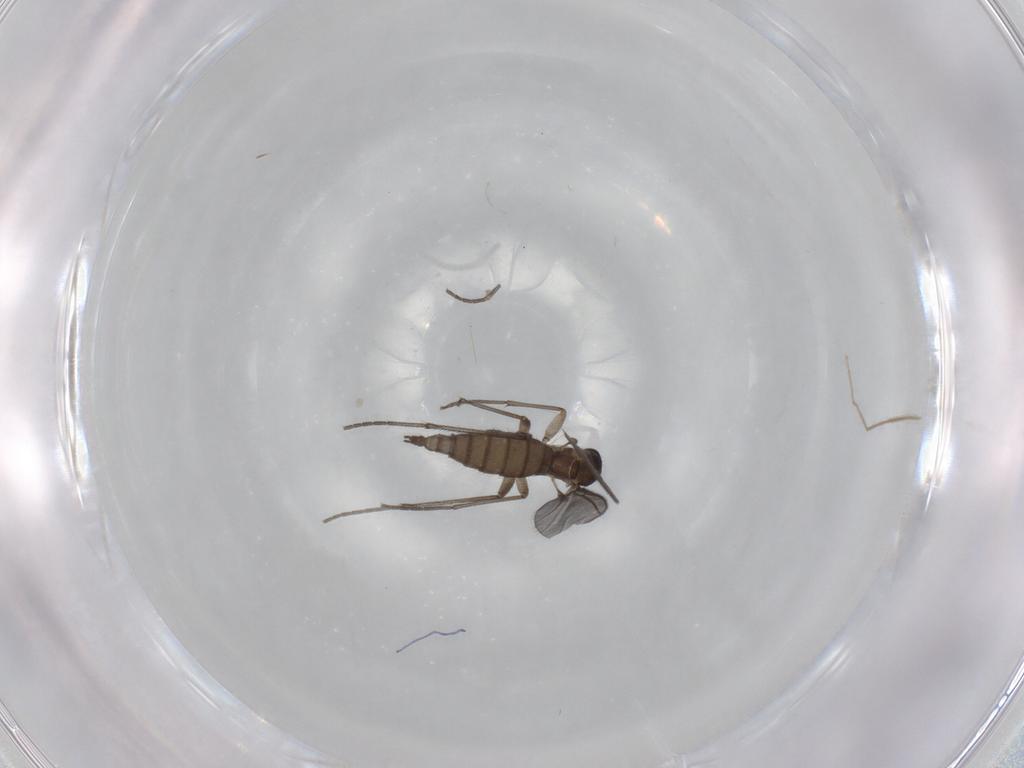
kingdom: Animalia
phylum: Arthropoda
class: Insecta
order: Diptera
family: Sciaridae
